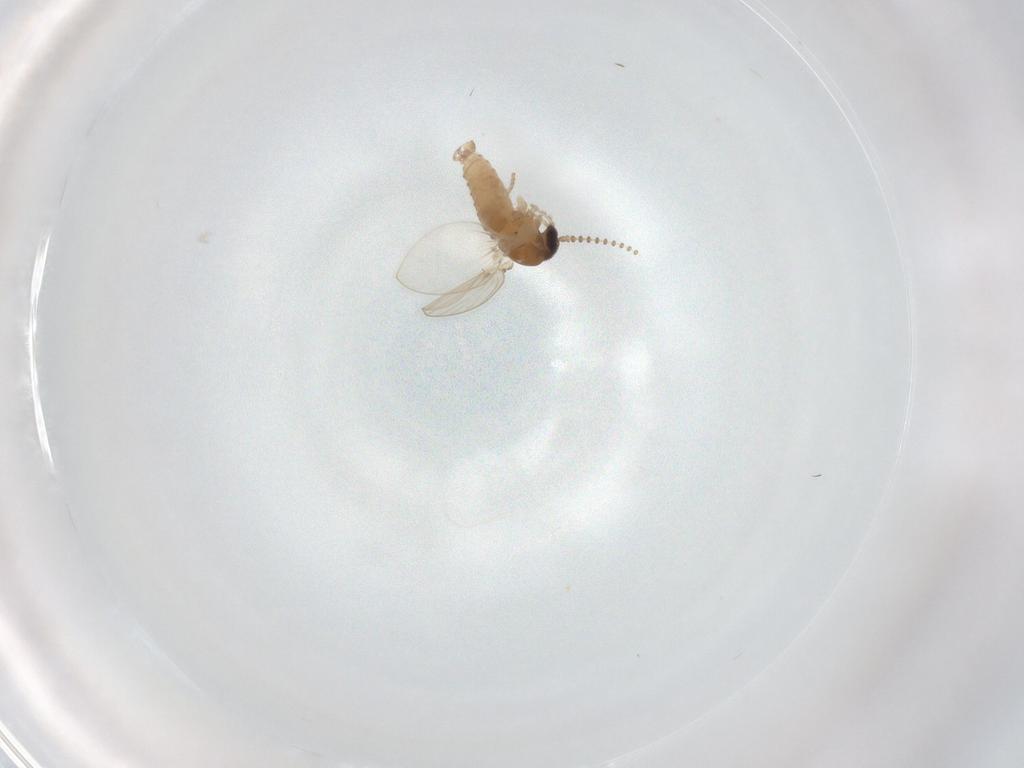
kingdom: Animalia
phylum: Arthropoda
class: Insecta
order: Diptera
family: Psychodidae
